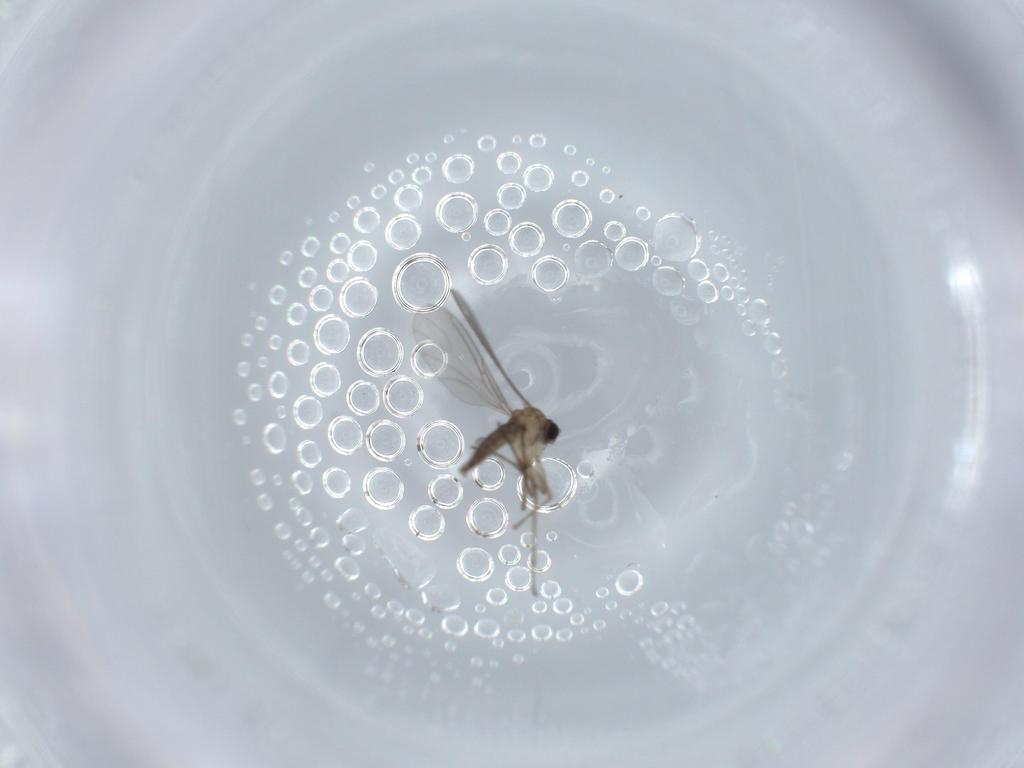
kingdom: Animalia
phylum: Arthropoda
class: Insecta
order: Diptera
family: Sciaridae
